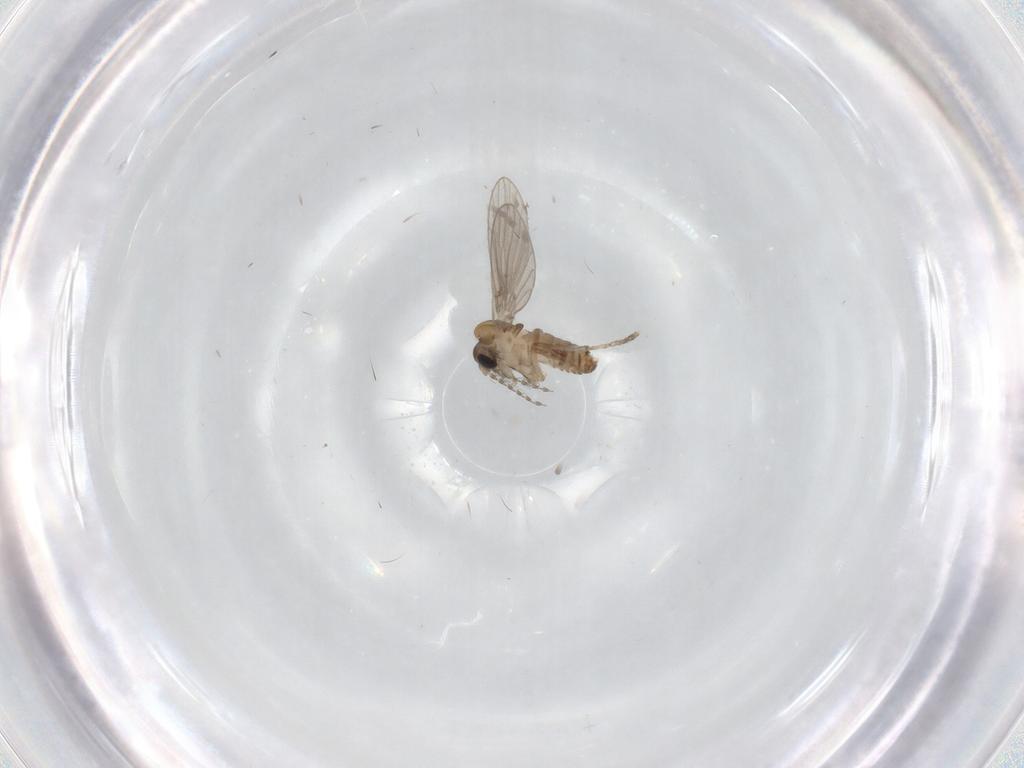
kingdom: Animalia
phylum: Arthropoda
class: Insecta
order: Diptera
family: Psychodidae
